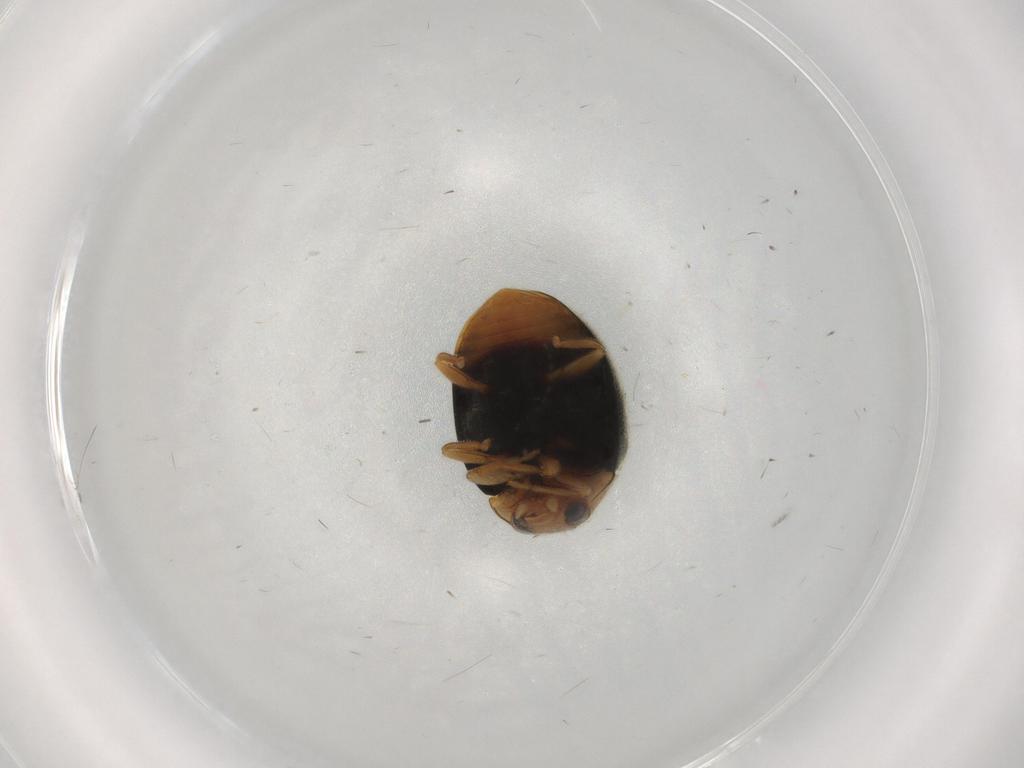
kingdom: Animalia
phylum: Arthropoda
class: Insecta
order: Coleoptera
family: Coccinellidae
